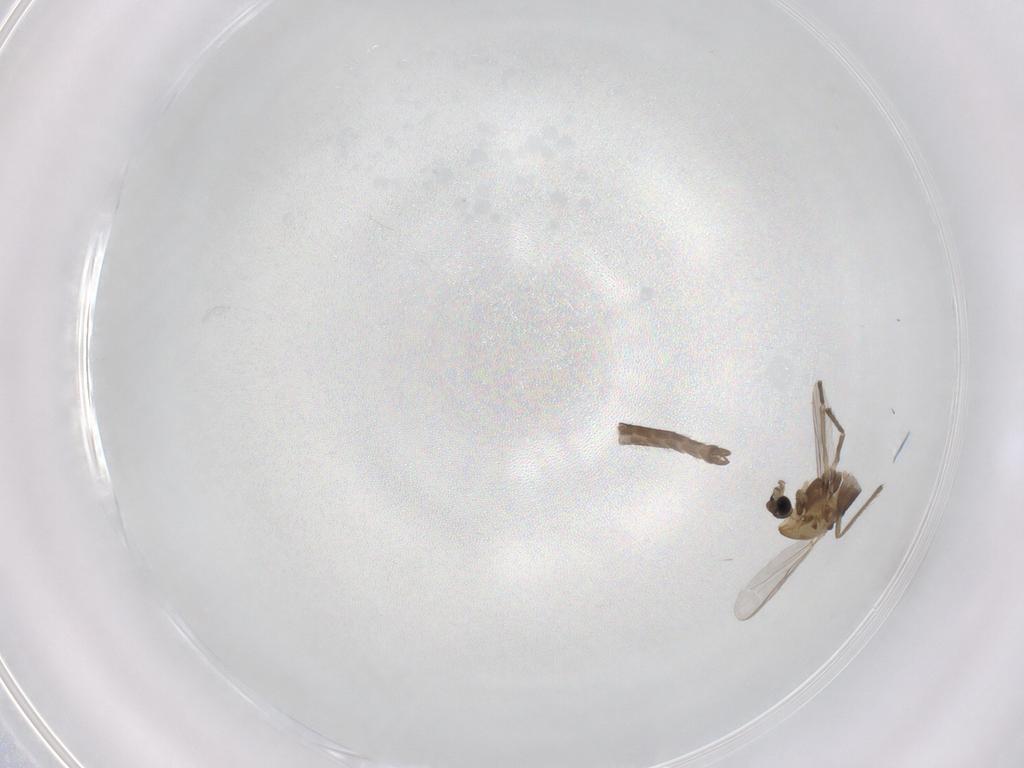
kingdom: Animalia
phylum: Arthropoda
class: Insecta
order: Diptera
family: Chironomidae
